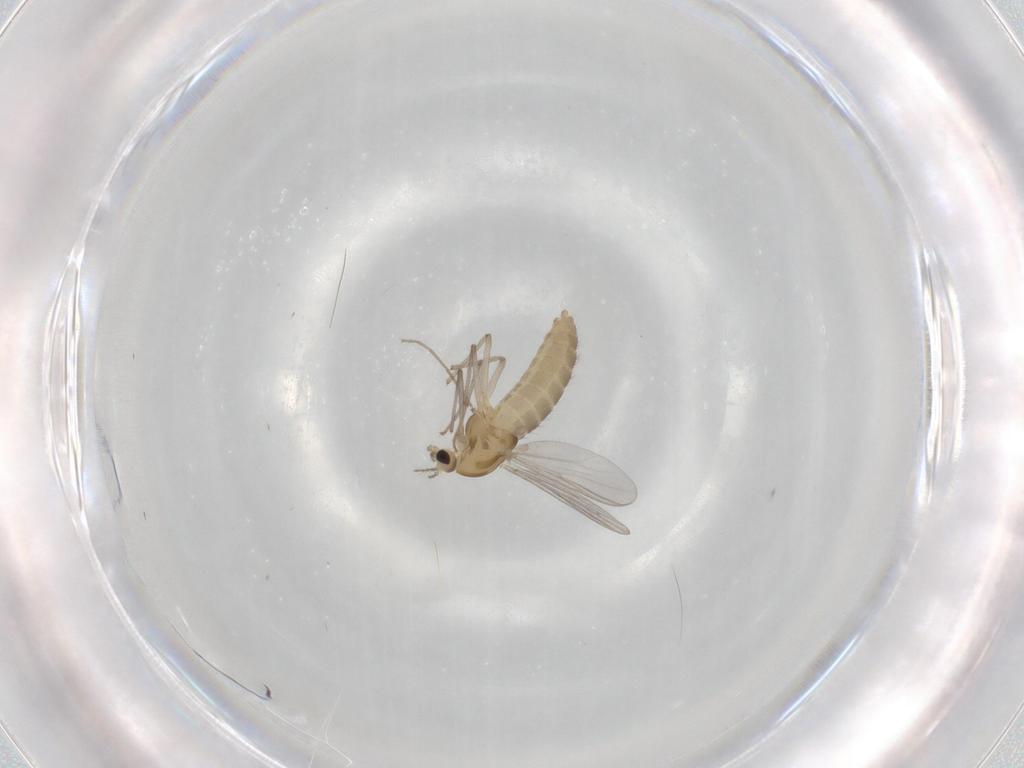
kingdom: Animalia
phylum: Arthropoda
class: Insecta
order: Diptera
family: Chironomidae
